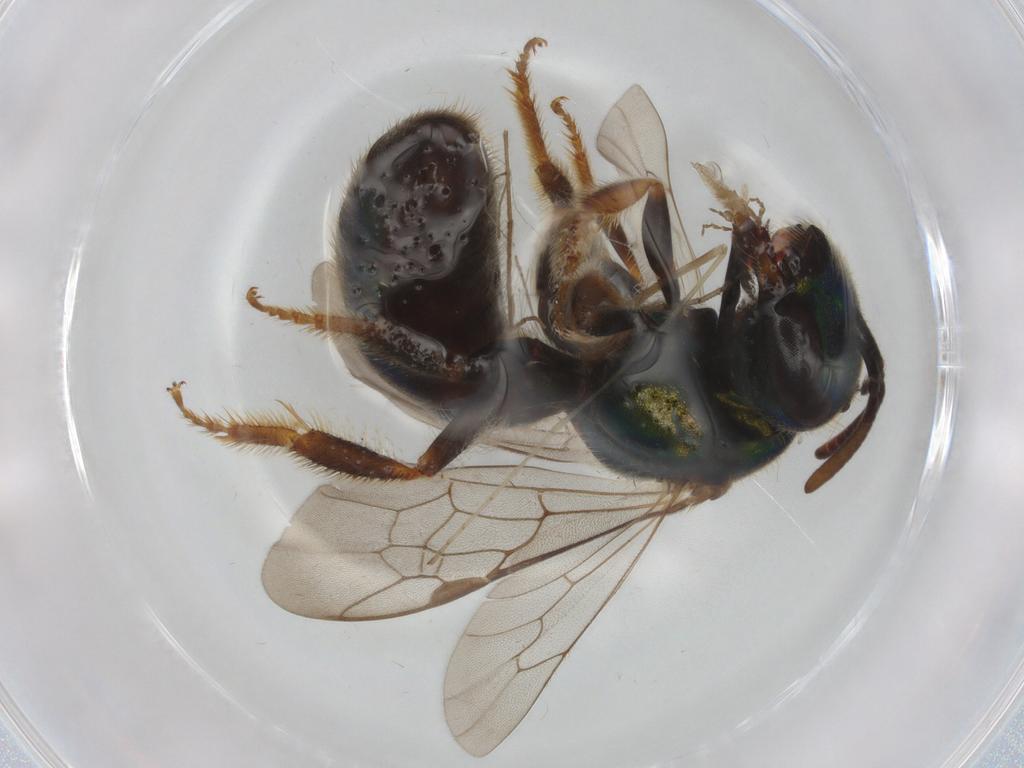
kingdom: Animalia
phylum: Arthropoda
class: Insecta
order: Hymenoptera
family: Halictidae
